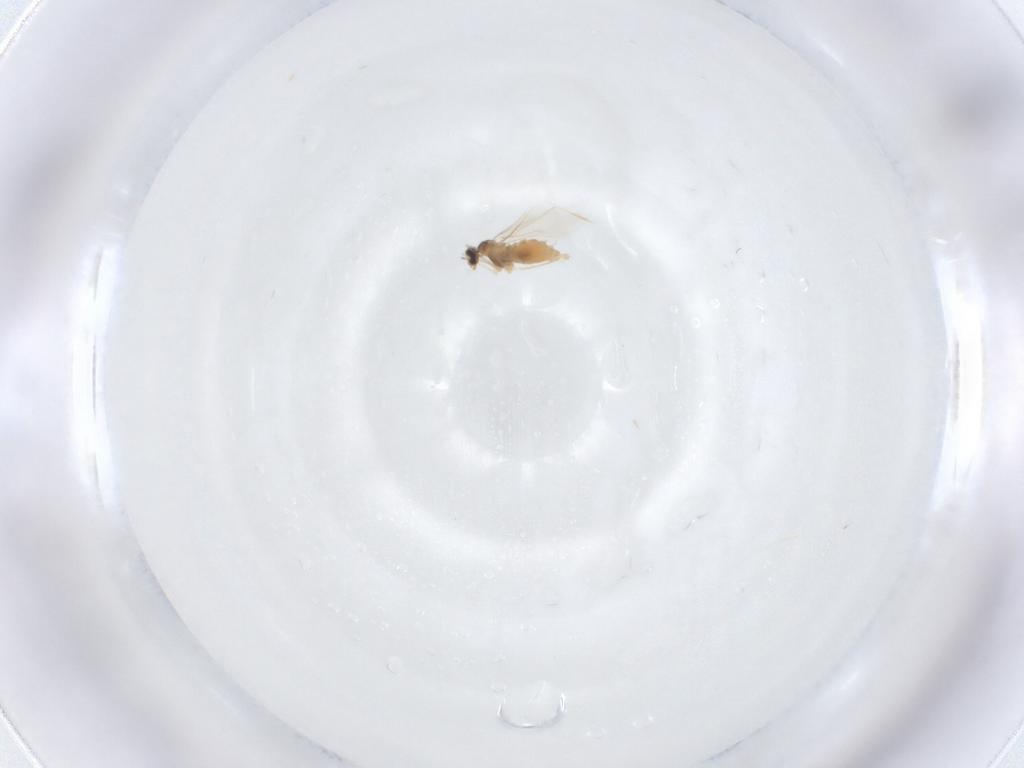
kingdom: Animalia
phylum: Arthropoda
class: Insecta
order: Diptera
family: Cecidomyiidae
